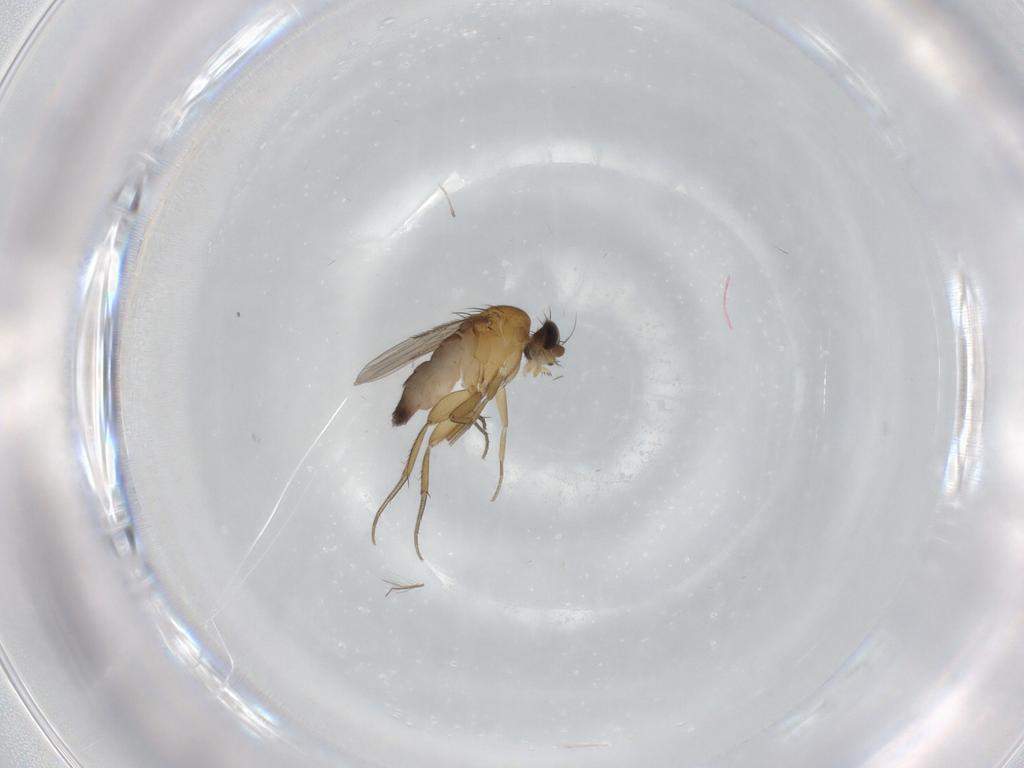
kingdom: Animalia
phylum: Arthropoda
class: Insecta
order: Diptera
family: Phoridae
